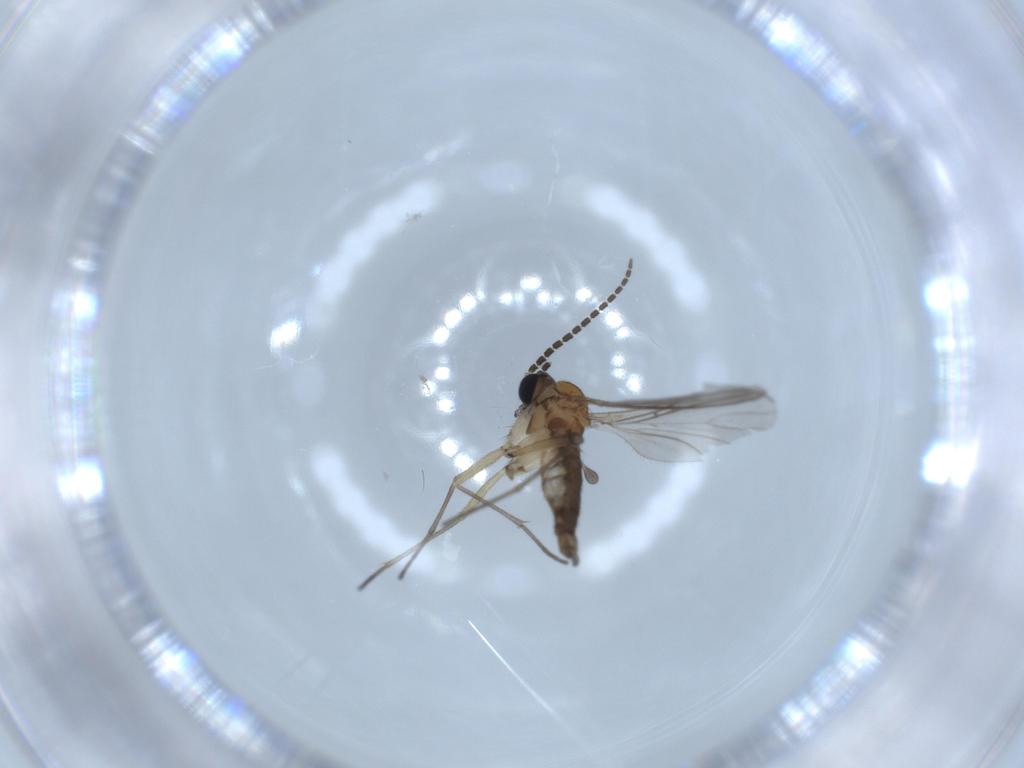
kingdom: Animalia
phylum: Arthropoda
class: Insecta
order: Diptera
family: Sciaridae
